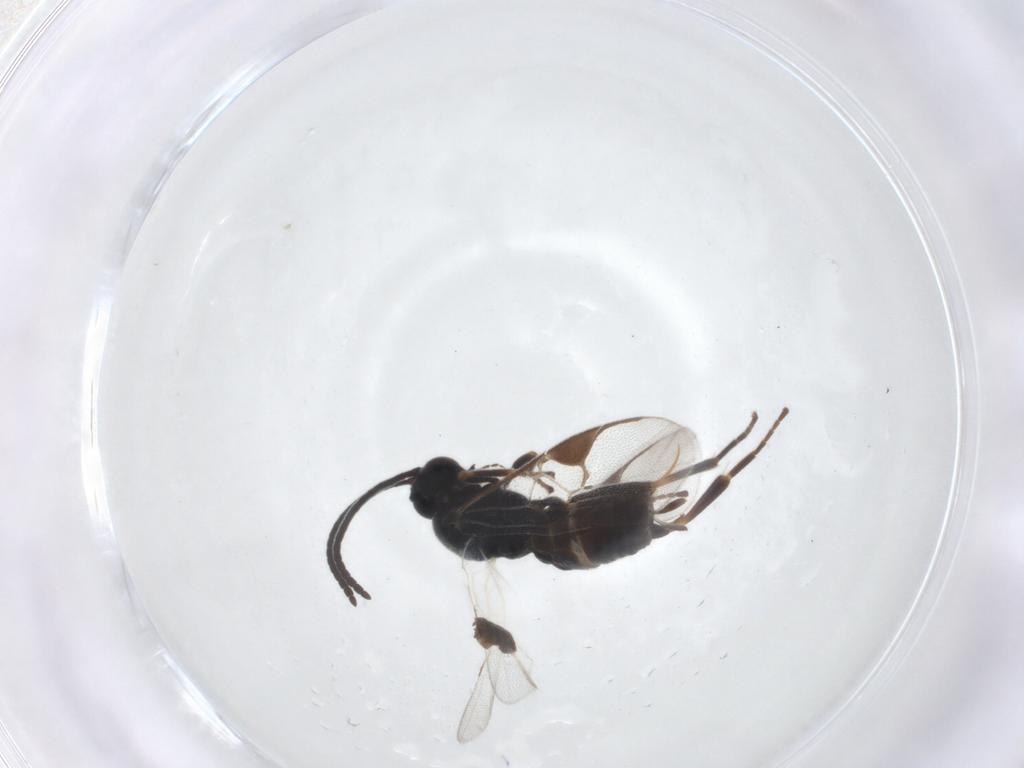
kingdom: Animalia
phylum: Arthropoda
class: Insecta
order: Hymenoptera
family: Braconidae
